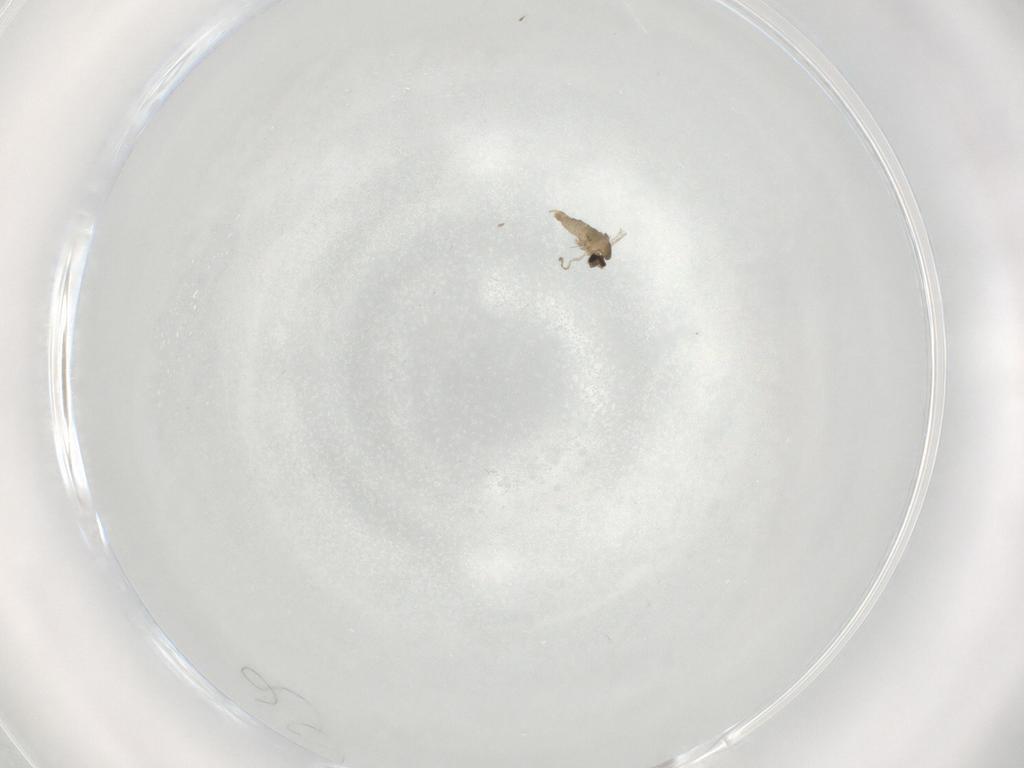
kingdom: Animalia
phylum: Arthropoda
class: Insecta
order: Diptera
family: Cecidomyiidae
